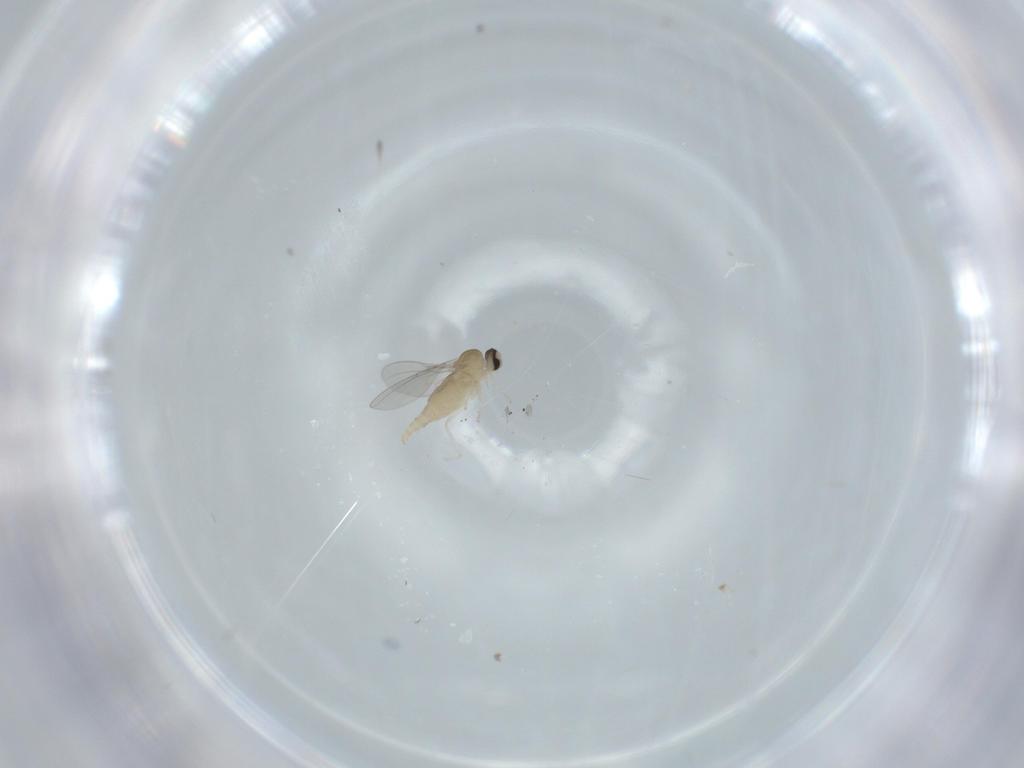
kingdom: Animalia
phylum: Arthropoda
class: Insecta
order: Diptera
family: Cecidomyiidae
